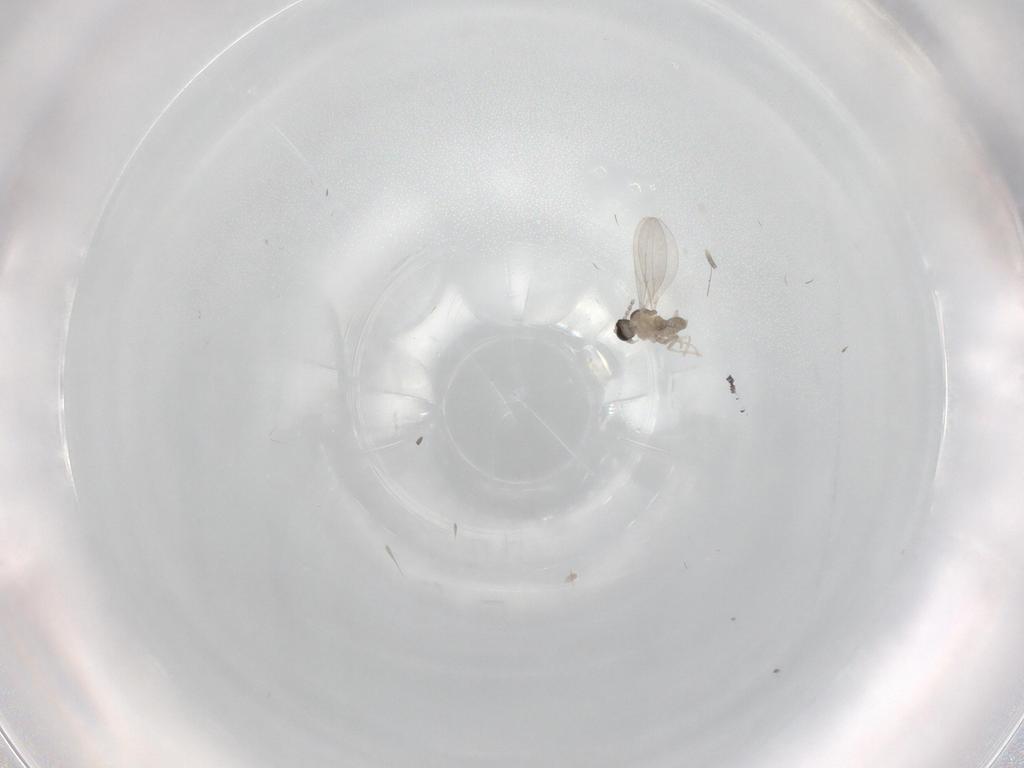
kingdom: Animalia
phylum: Arthropoda
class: Insecta
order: Diptera
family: Cecidomyiidae
